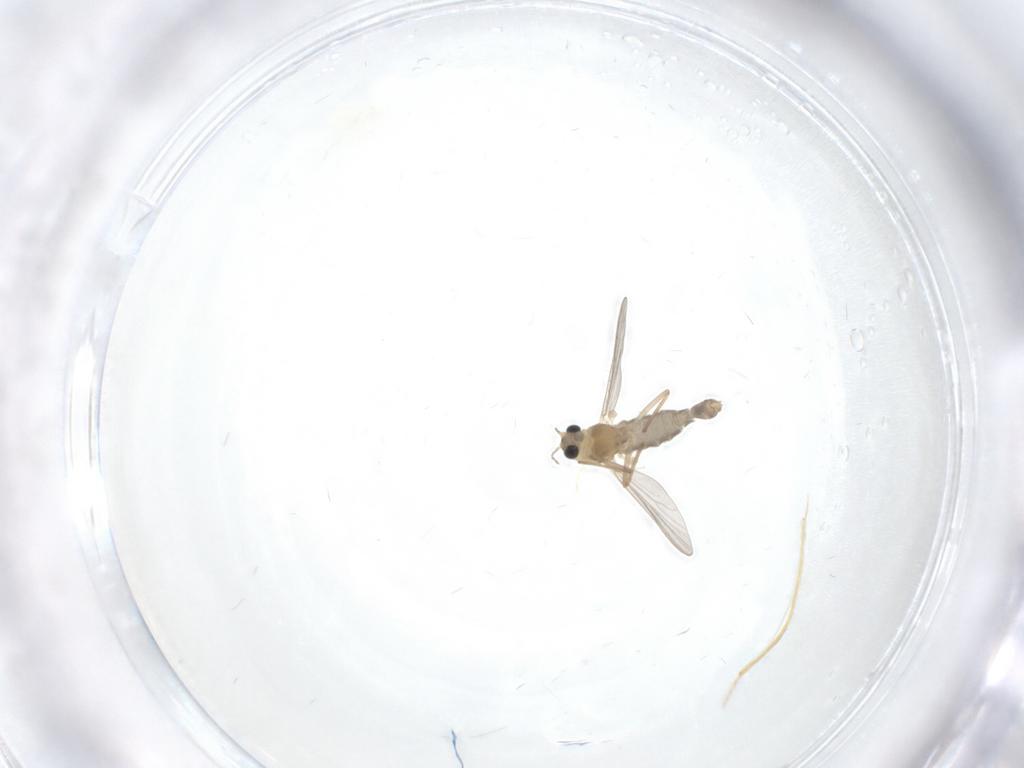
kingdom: Animalia
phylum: Arthropoda
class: Insecta
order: Diptera
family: Chironomidae
